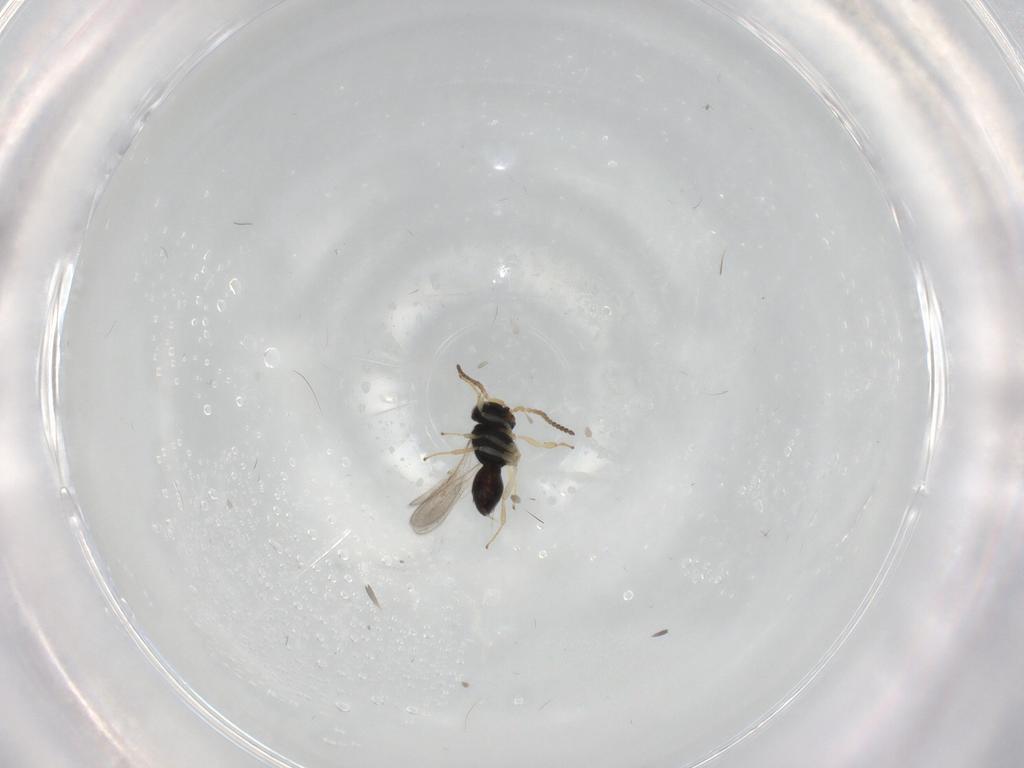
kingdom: Animalia
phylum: Arthropoda
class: Insecta
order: Hymenoptera
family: Scelionidae
